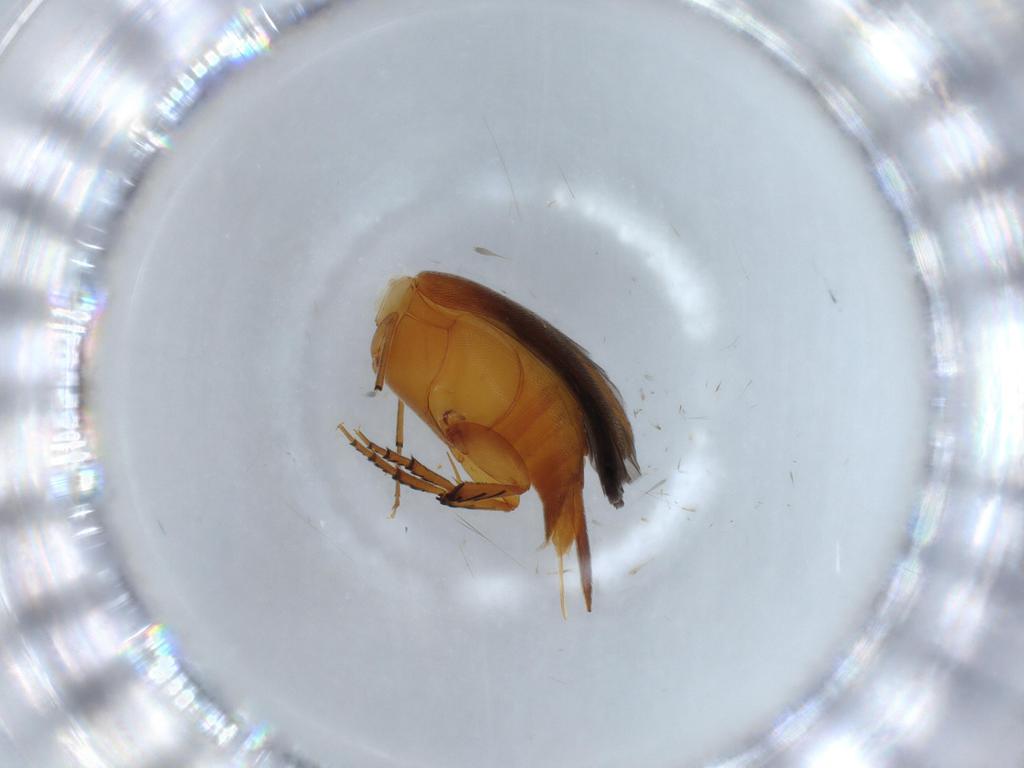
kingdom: Animalia
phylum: Arthropoda
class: Insecta
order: Coleoptera
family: Mordellidae
